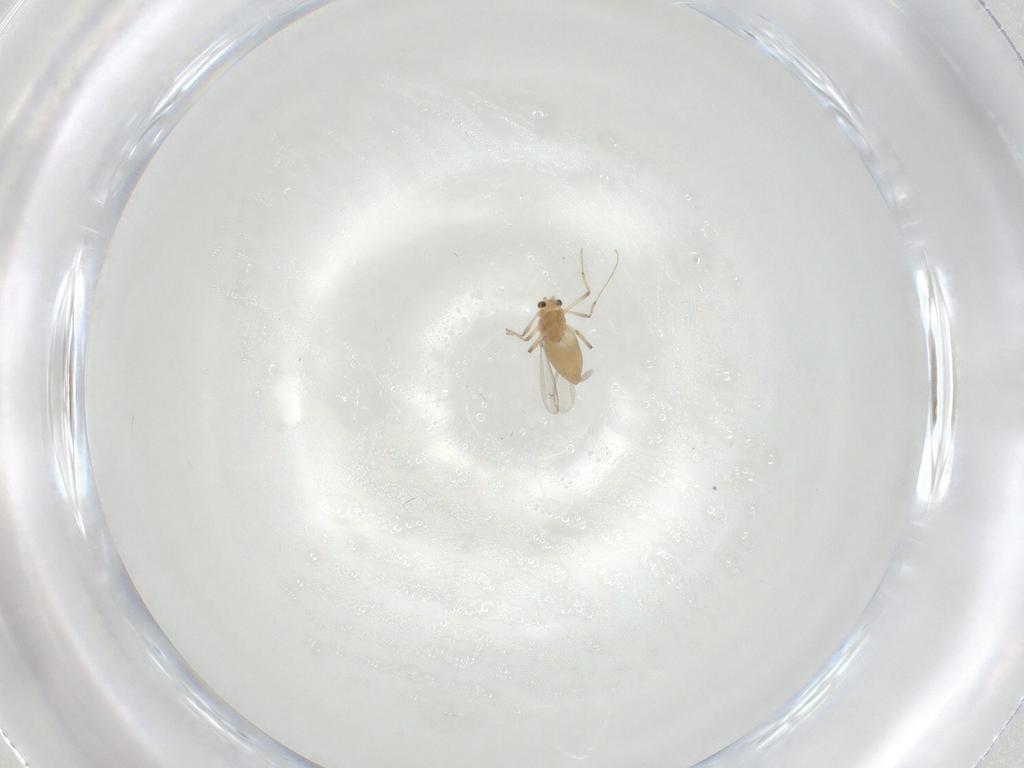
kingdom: Animalia
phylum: Arthropoda
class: Insecta
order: Diptera
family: Chironomidae
